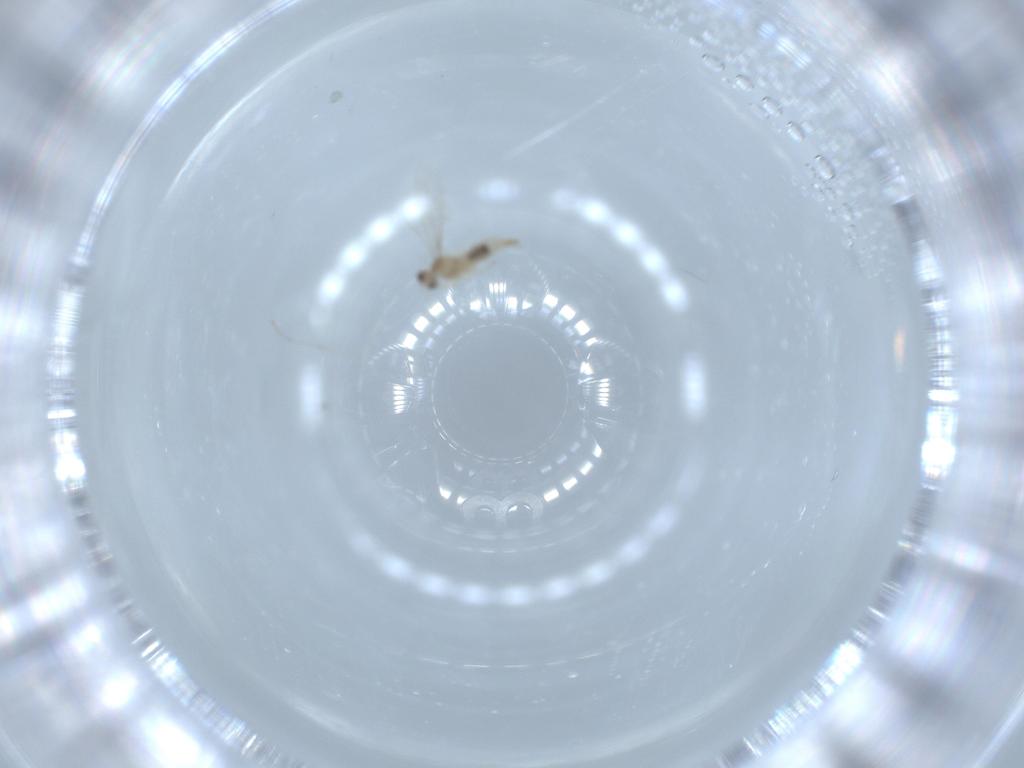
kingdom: Animalia
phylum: Arthropoda
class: Insecta
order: Diptera
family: Cecidomyiidae
